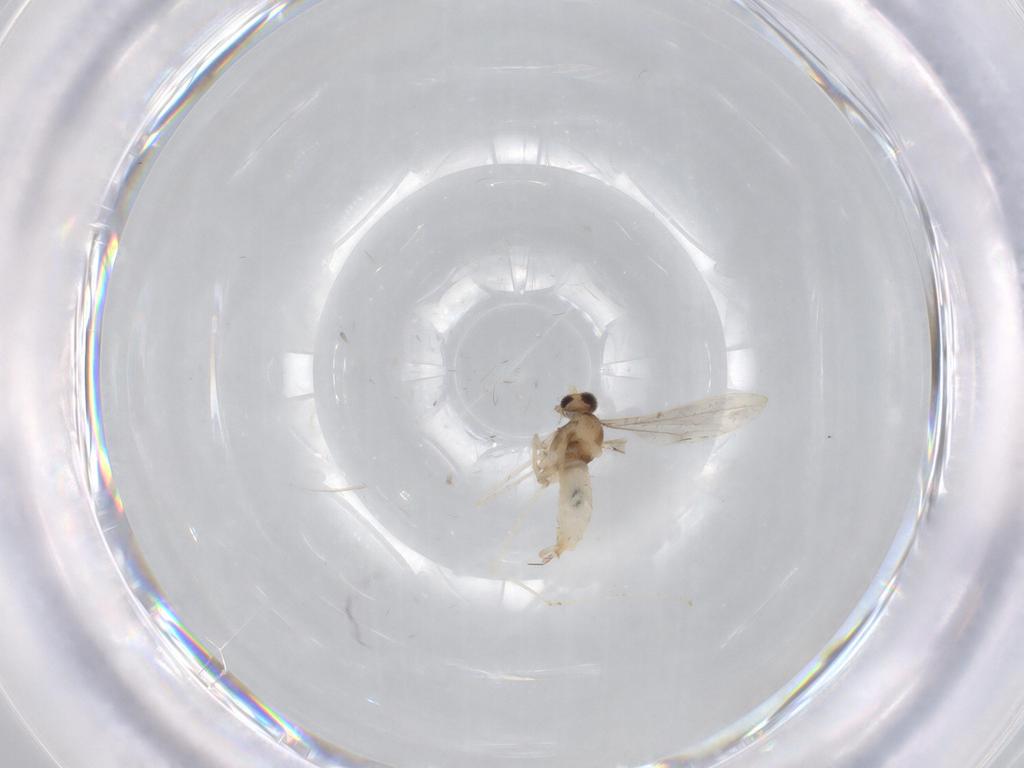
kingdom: Animalia
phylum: Arthropoda
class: Insecta
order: Diptera
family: Cecidomyiidae
